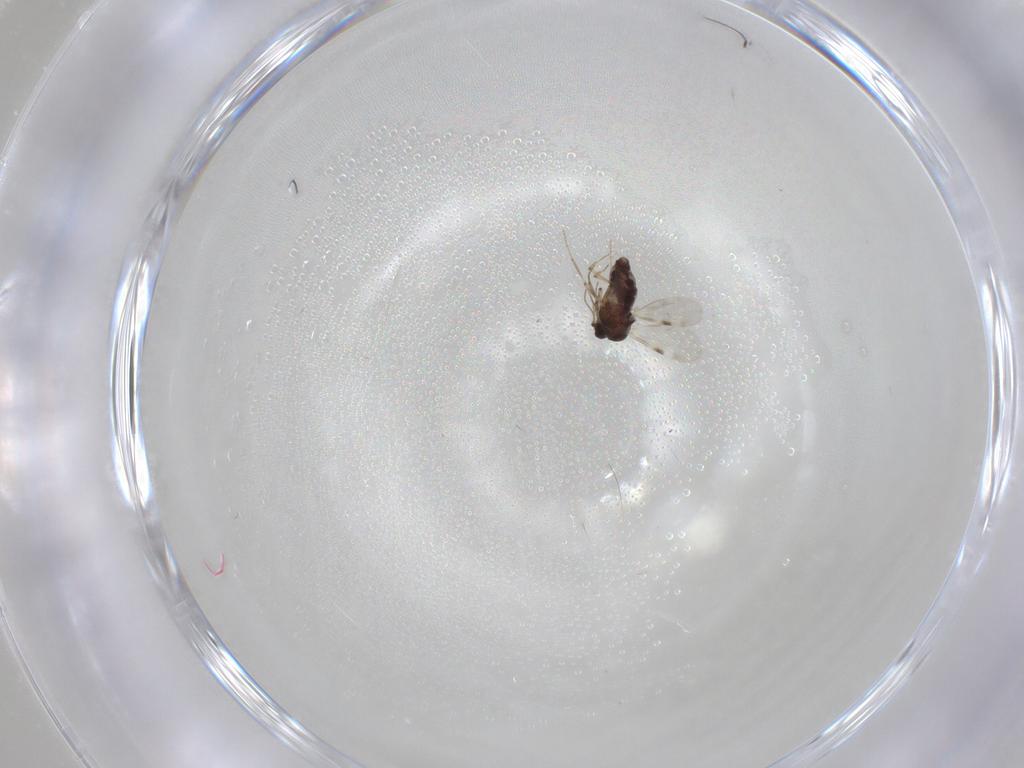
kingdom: Animalia
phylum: Arthropoda
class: Insecta
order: Diptera
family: Chironomidae
